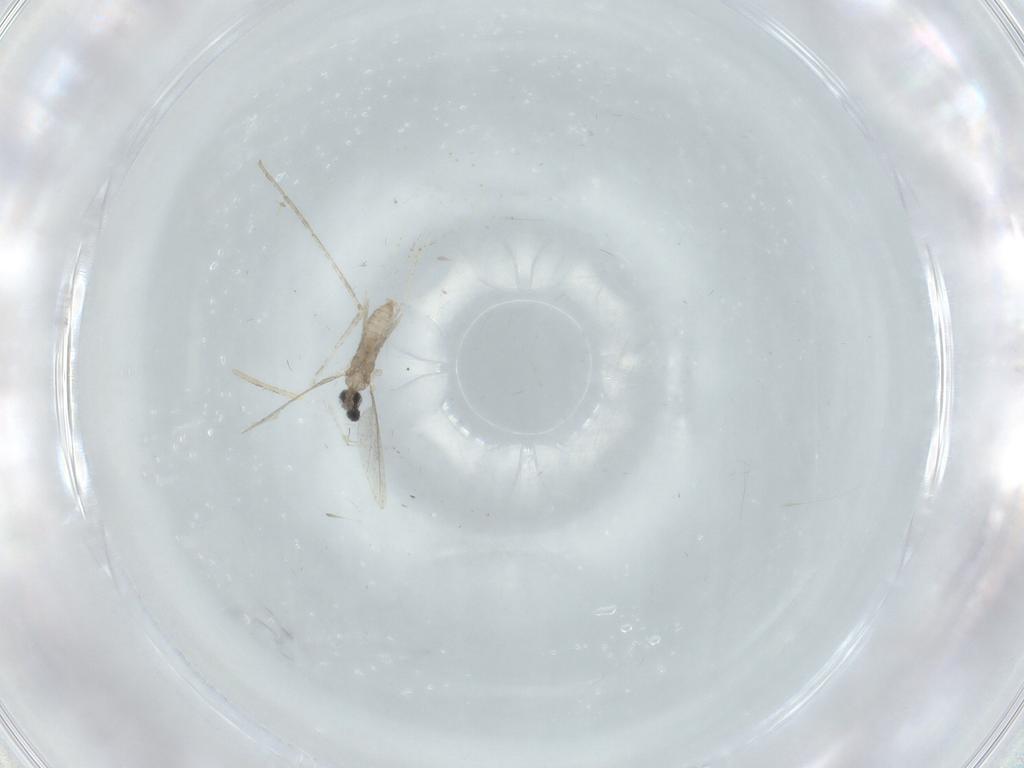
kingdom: Animalia
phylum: Arthropoda
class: Insecta
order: Diptera
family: Cecidomyiidae
